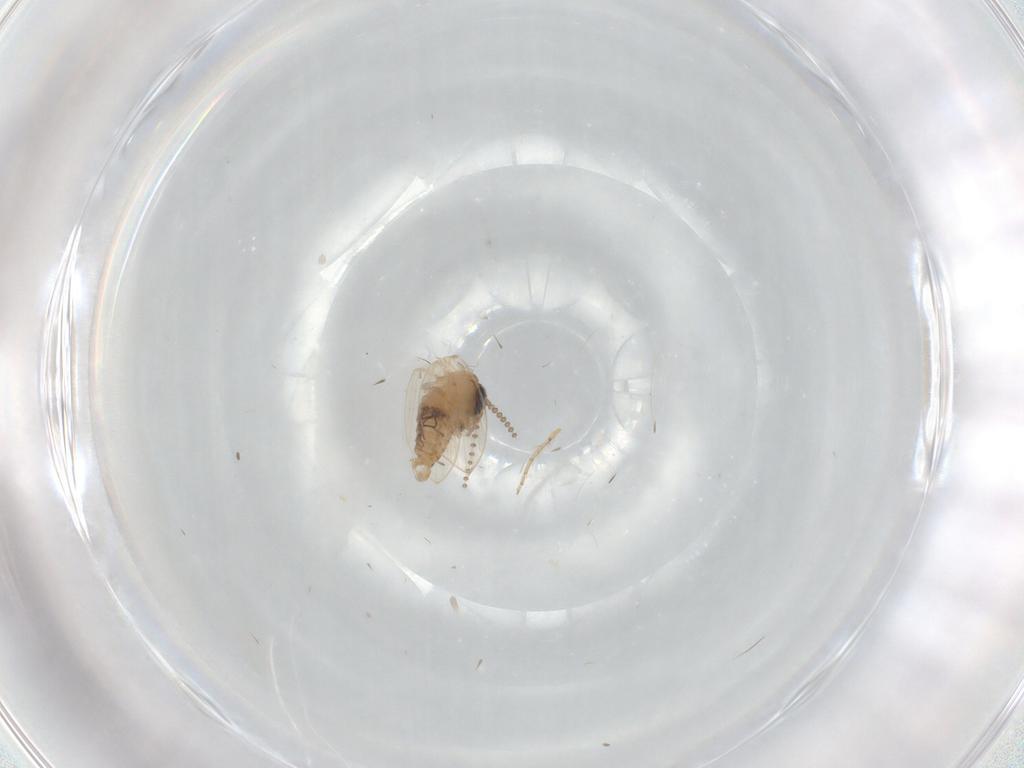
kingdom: Animalia
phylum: Arthropoda
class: Insecta
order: Diptera
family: Psychodidae
